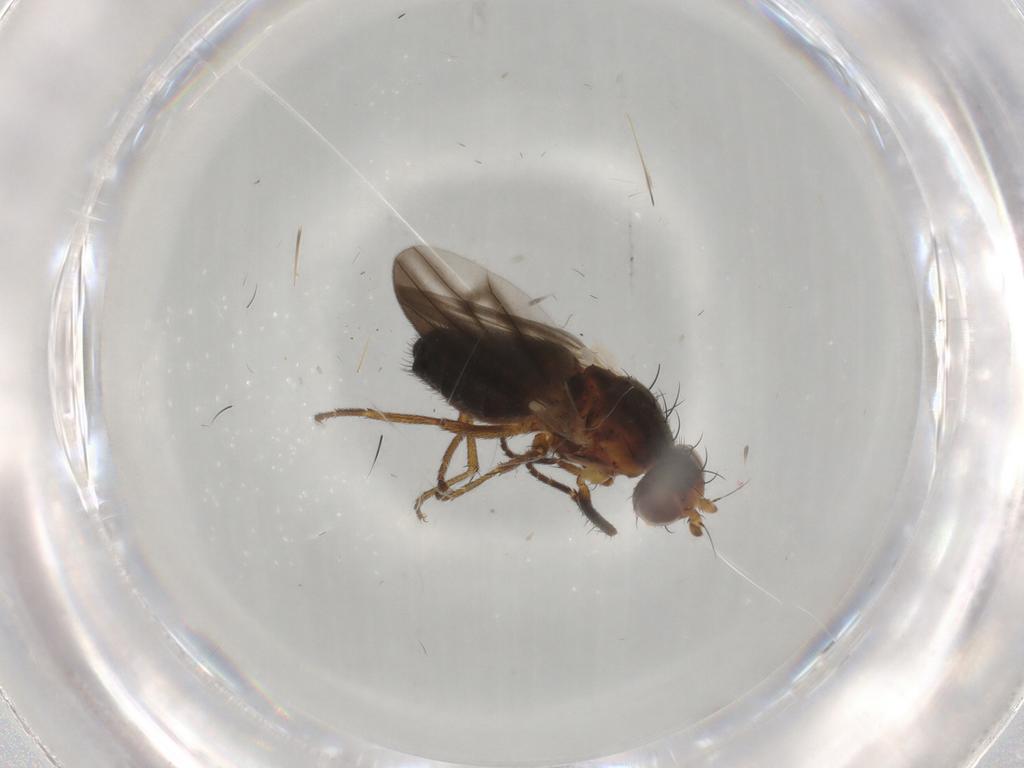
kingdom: Animalia
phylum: Arthropoda
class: Insecta
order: Diptera
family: Heleomyzidae
